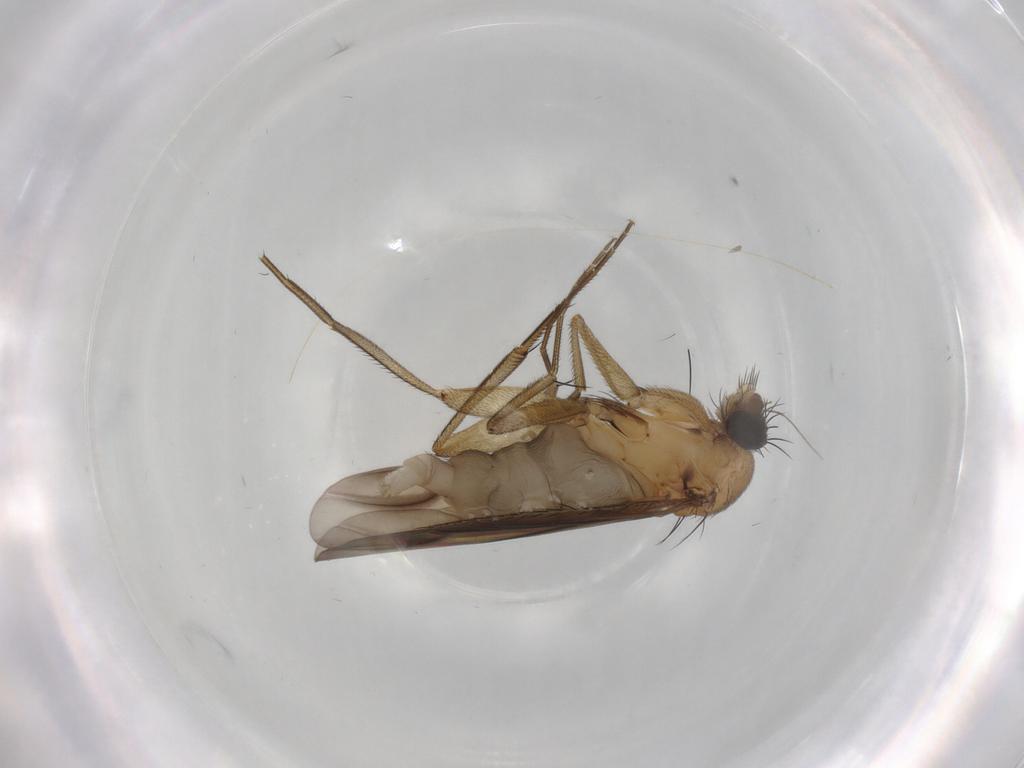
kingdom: Animalia
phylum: Arthropoda
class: Insecta
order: Diptera
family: Phoridae
